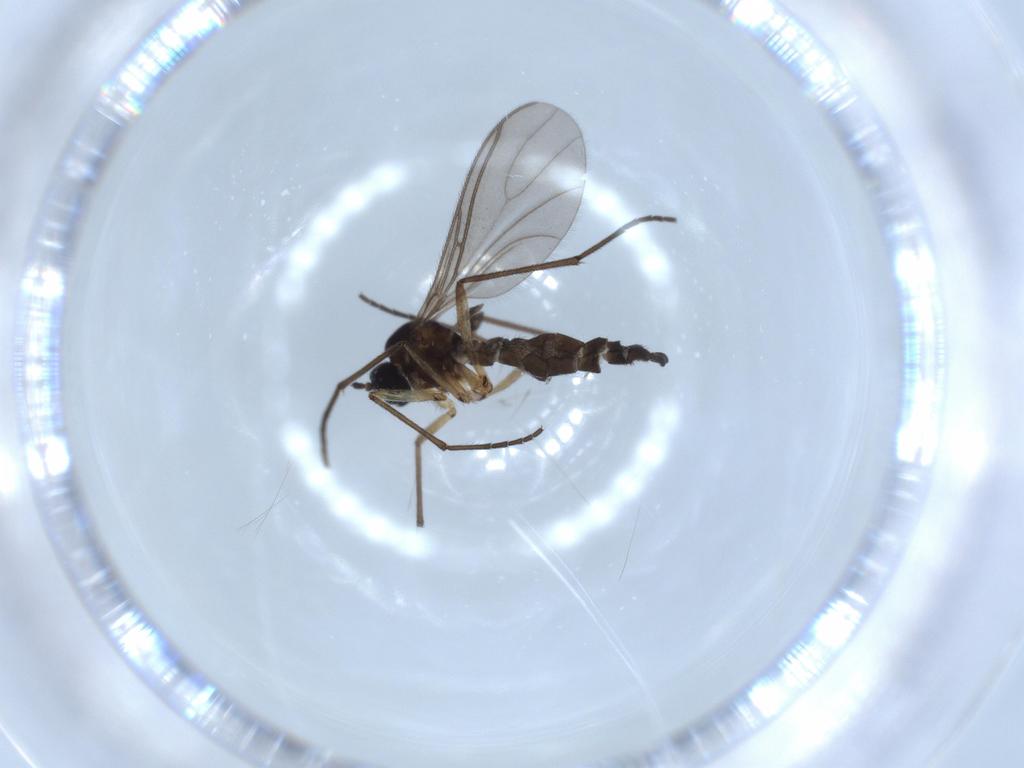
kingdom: Animalia
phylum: Arthropoda
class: Insecta
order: Diptera
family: Sciaridae
